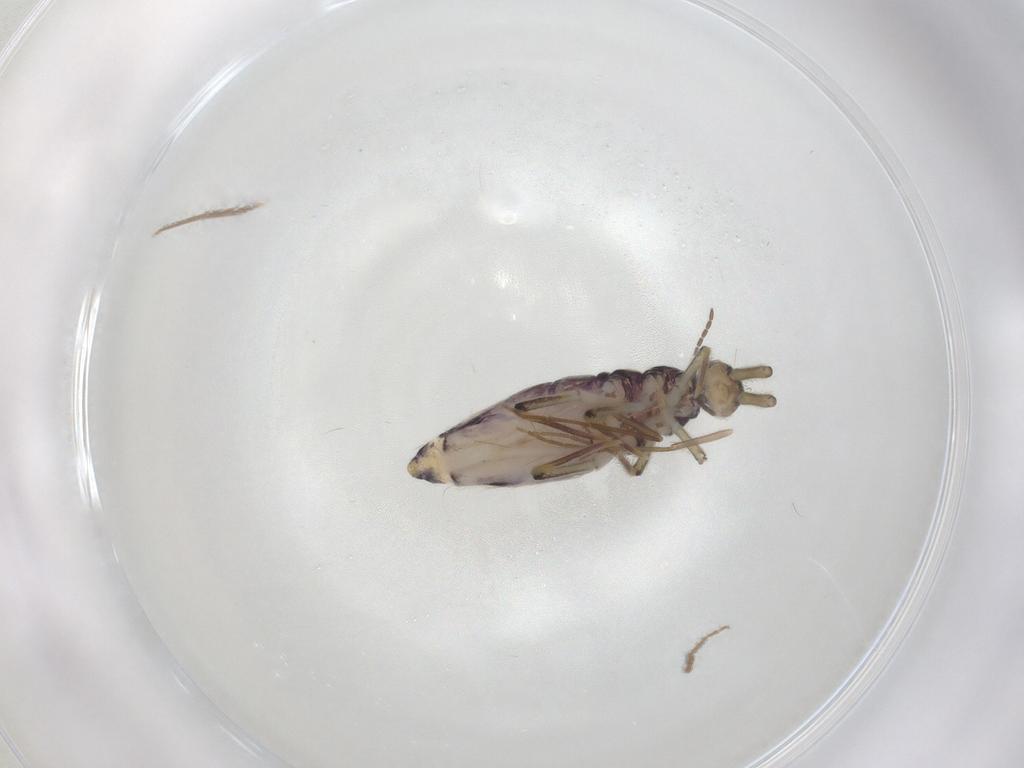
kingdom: Animalia
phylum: Arthropoda
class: Collembola
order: Entomobryomorpha
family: Entomobryidae
